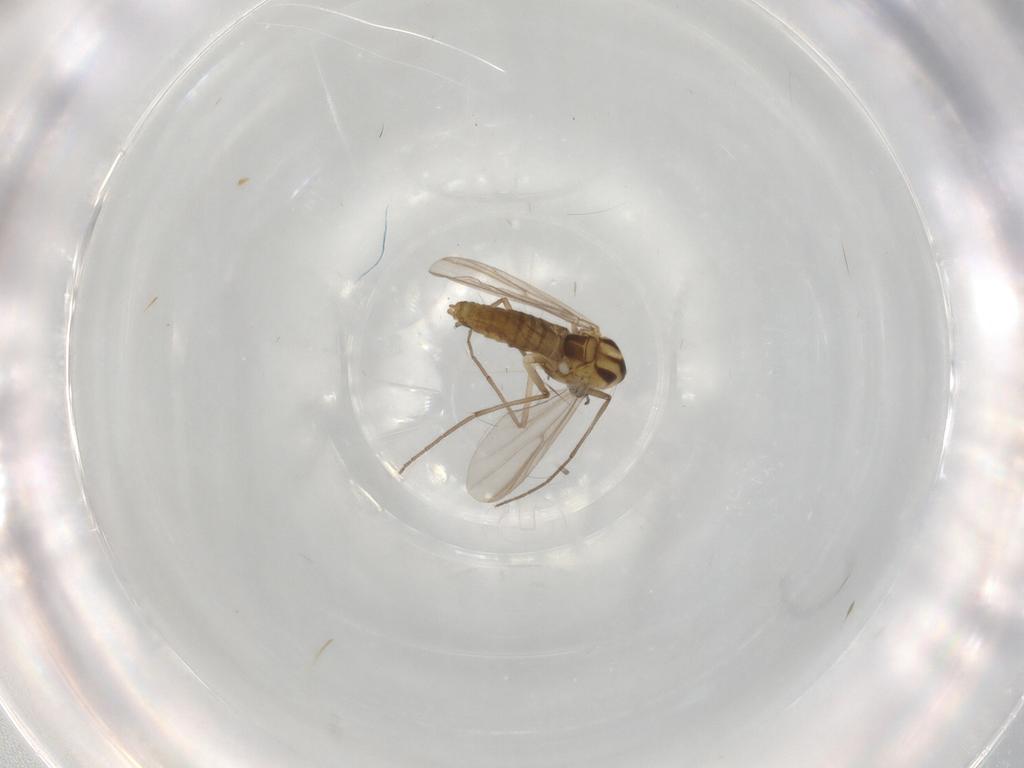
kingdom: Animalia
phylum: Arthropoda
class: Insecta
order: Diptera
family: Chironomidae
